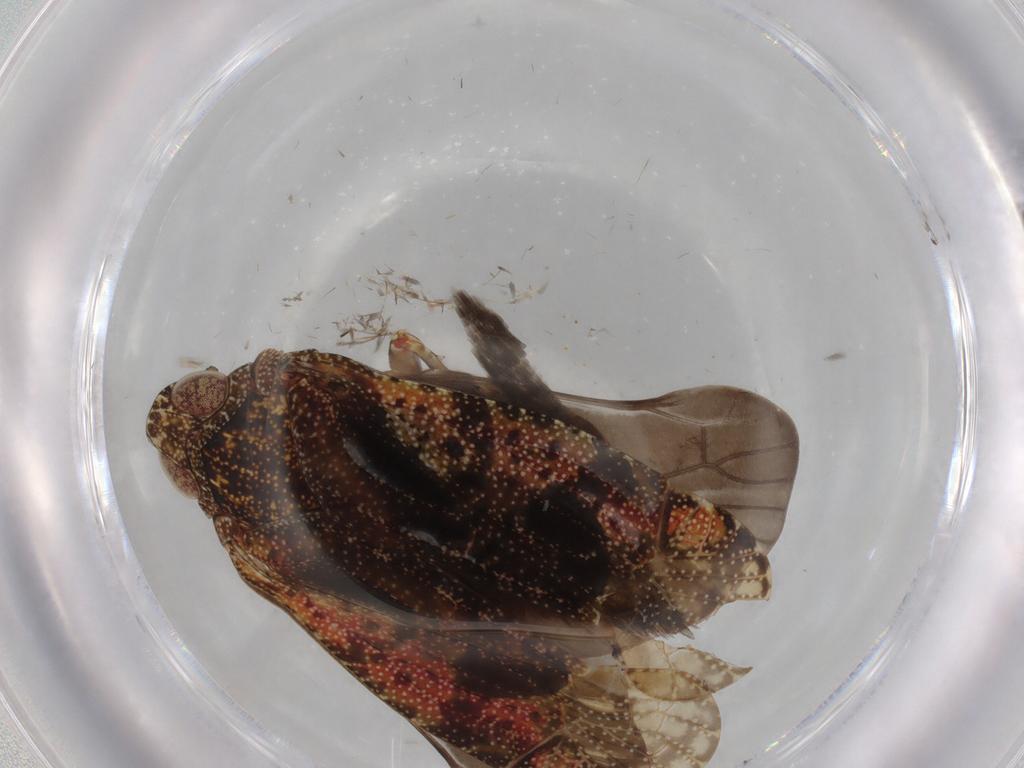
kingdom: Animalia
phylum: Arthropoda
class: Insecta
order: Hemiptera
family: Achilidae
